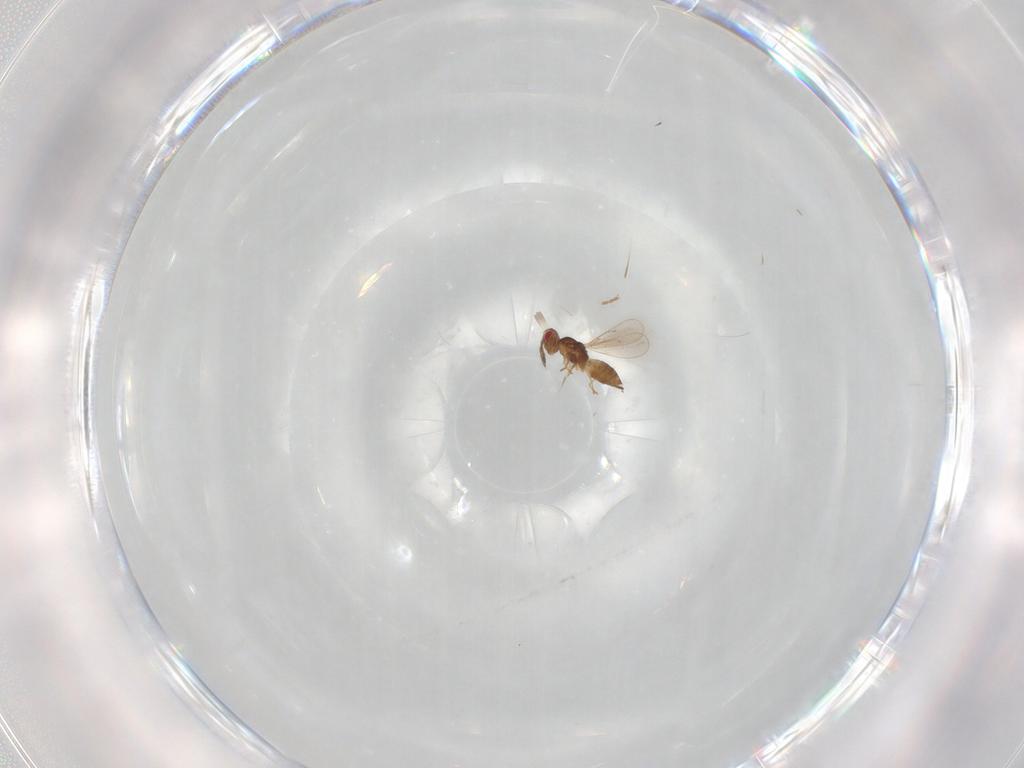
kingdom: Animalia
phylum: Arthropoda
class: Insecta
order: Hymenoptera
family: Eulophidae
